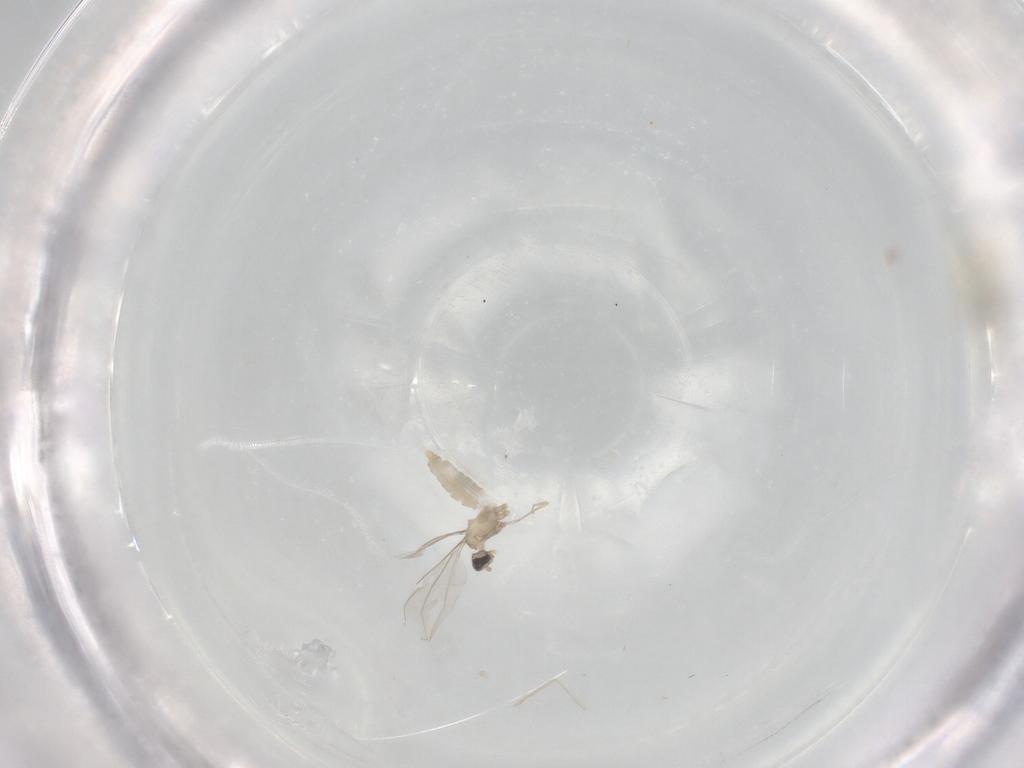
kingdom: Animalia
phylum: Arthropoda
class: Insecta
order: Diptera
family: Cecidomyiidae
